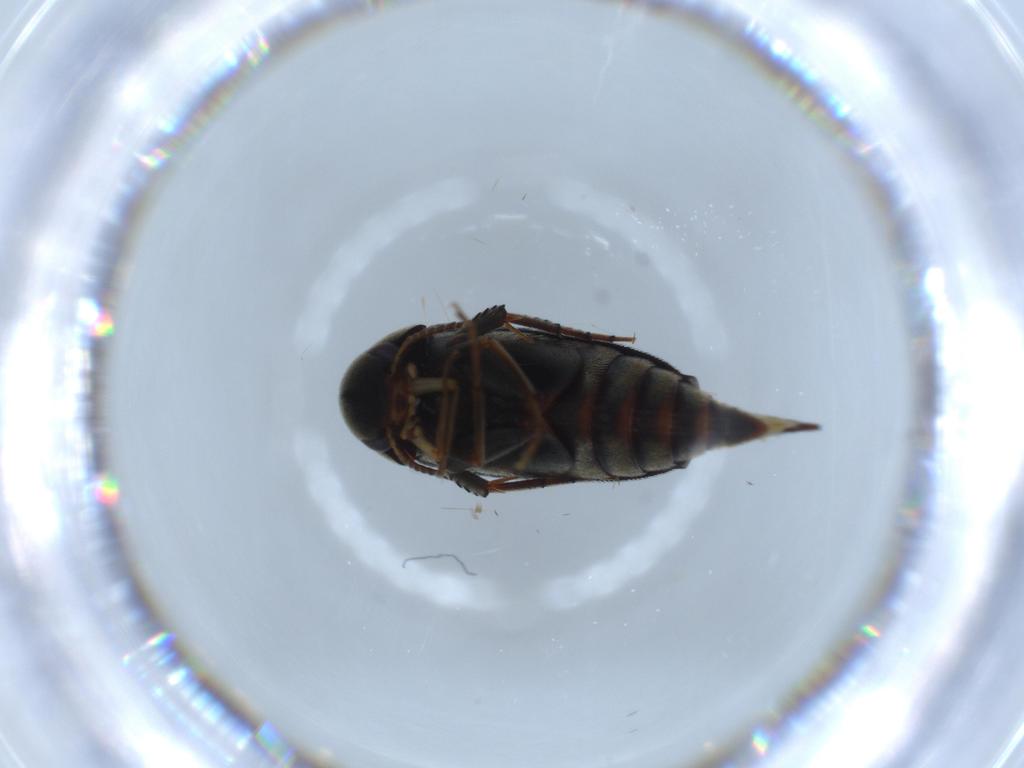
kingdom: Animalia
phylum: Arthropoda
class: Insecta
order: Coleoptera
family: Mordellidae
